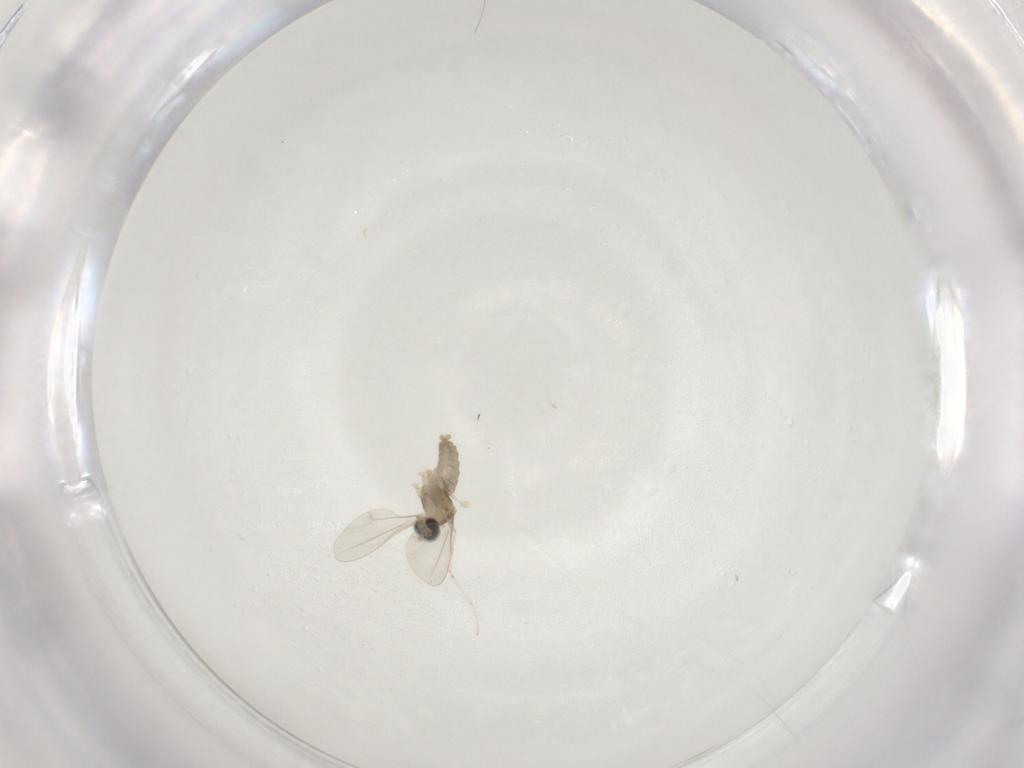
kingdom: Animalia
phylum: Arthropoda
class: Insecta
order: Diptera
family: Cecidomyiidae
